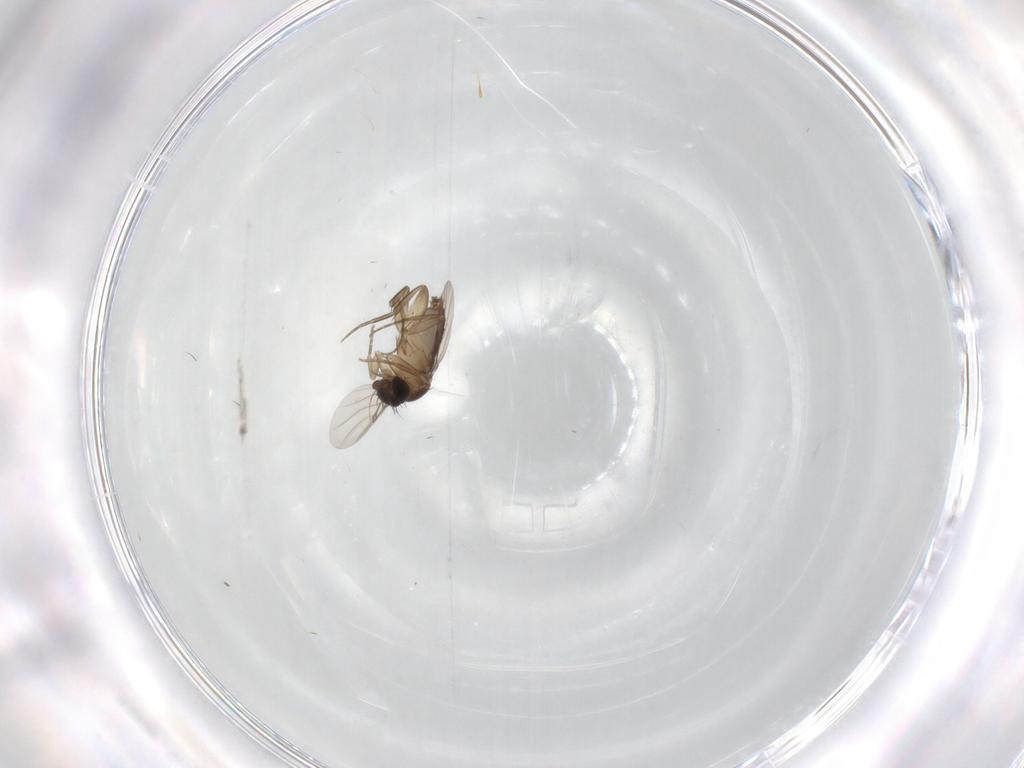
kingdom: Animalia
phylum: Arthropoda
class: Insecta
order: Diptera
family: Phoridae
